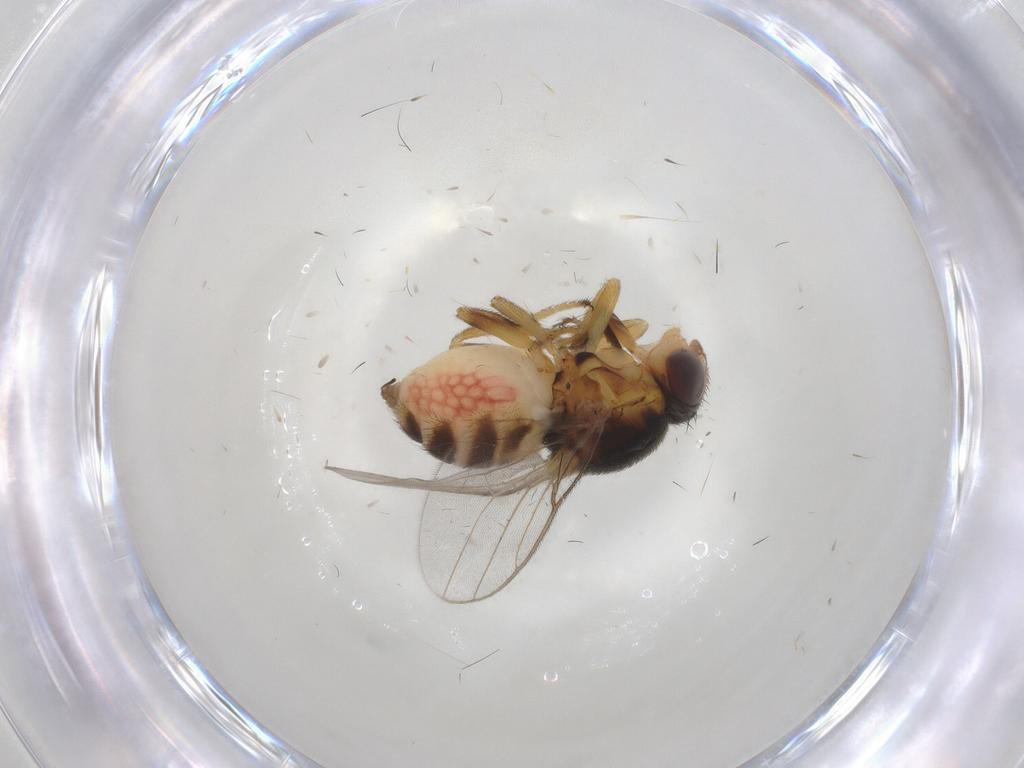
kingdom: Animalia
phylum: Arthropoda
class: Insecta
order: Diptera
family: Chloropidae
